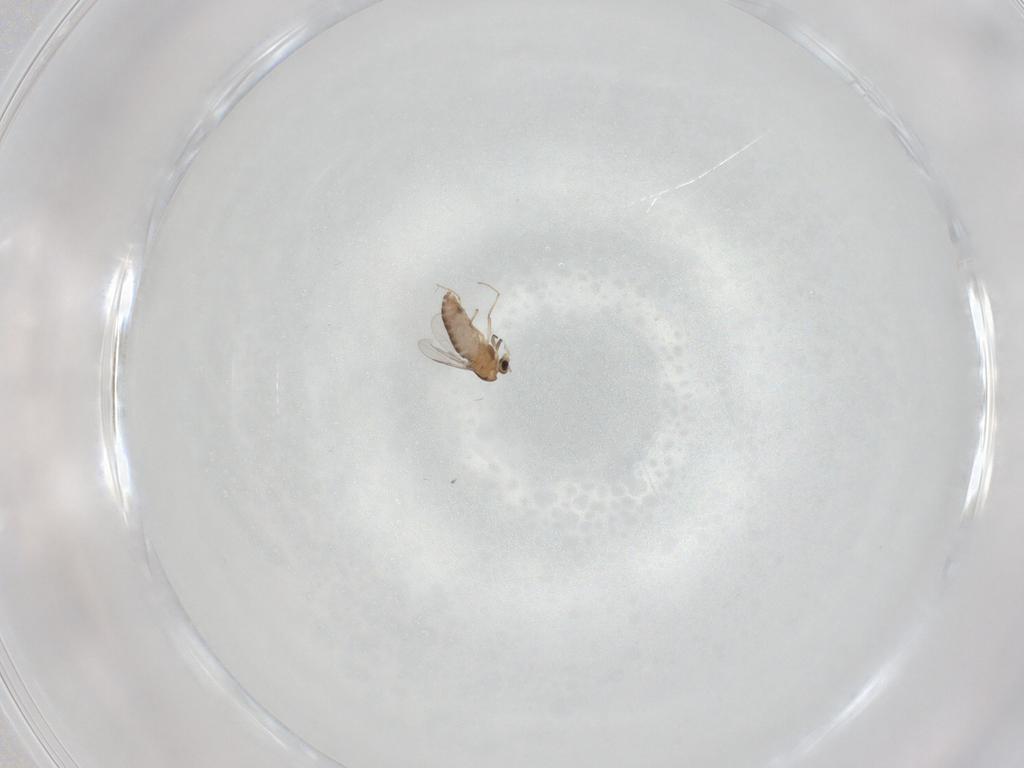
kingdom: Animalia
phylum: Arthropoda
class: Insecta
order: Diptera
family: Chironomidae
